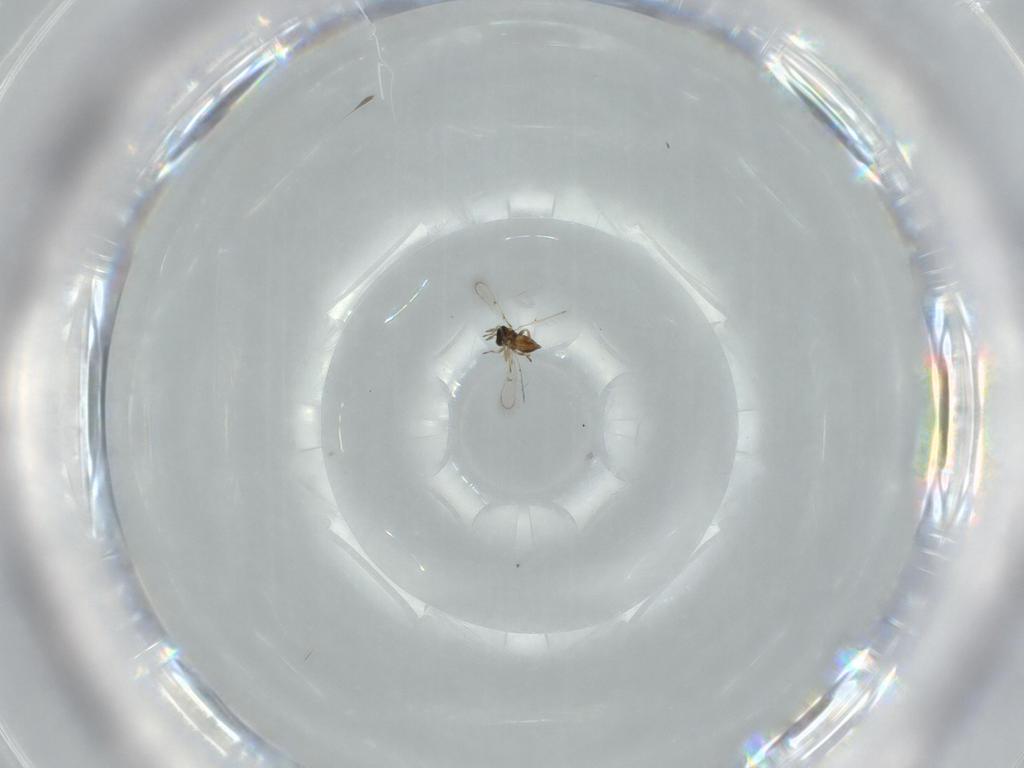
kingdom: Animalia
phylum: Arthropoda
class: Insecta
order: Hymenoptera
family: Trichogrammatidae
